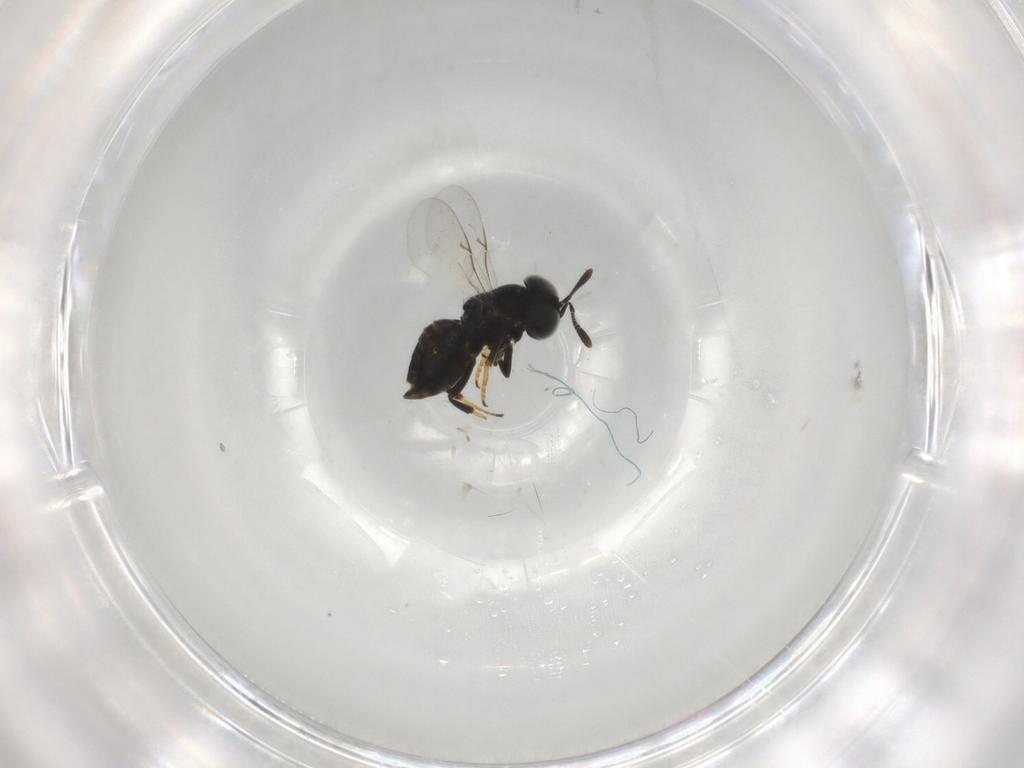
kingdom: Animalia
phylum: Arthropoda
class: Insecta
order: Hymenoptera
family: Encyrtidae
